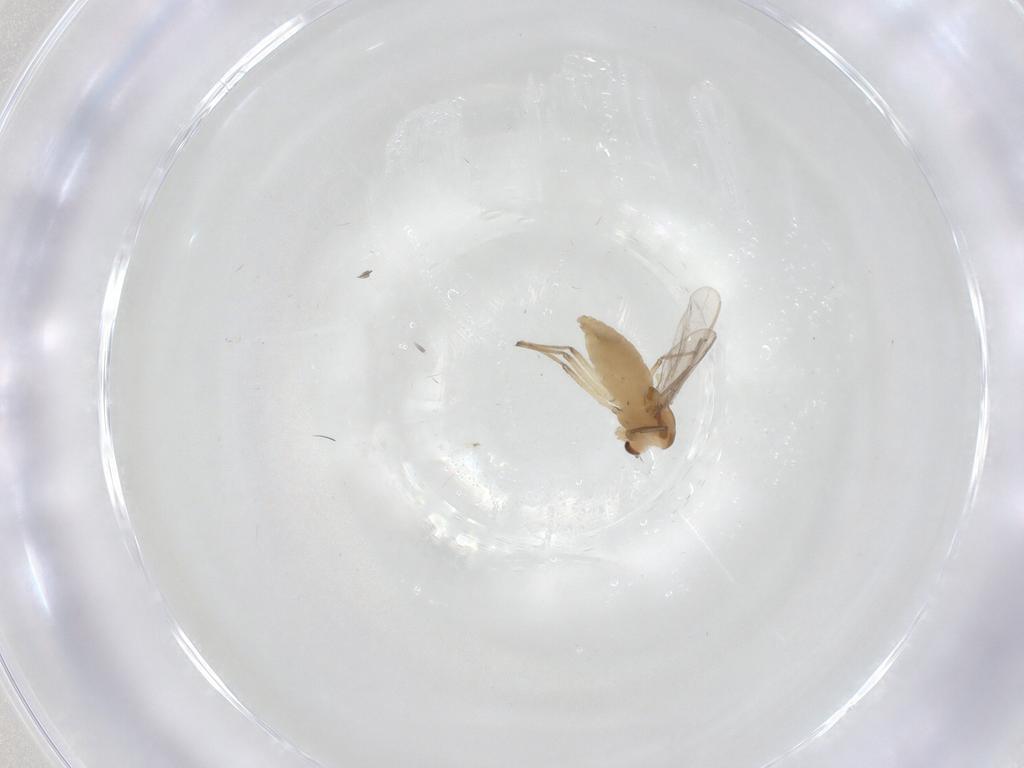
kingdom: Animalia
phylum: Arthropoda
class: Insecta
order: Diptera
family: Chironomidae
